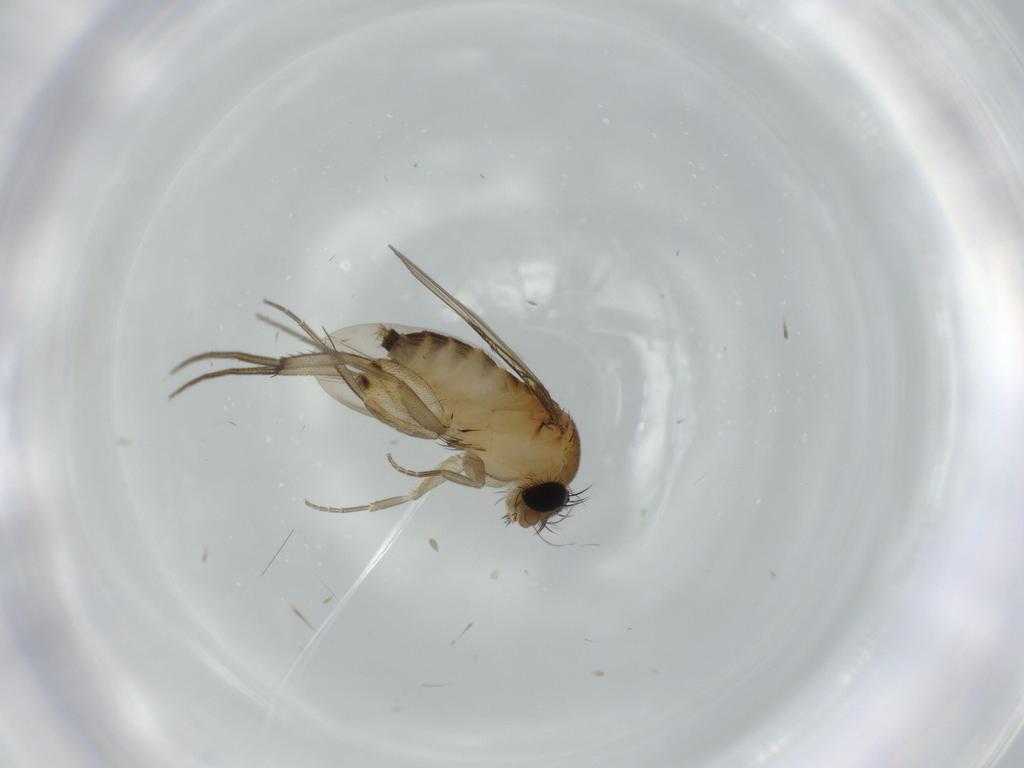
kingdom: Animalia
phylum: Arthropoda
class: Insecta
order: Diptera
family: Phoridae
